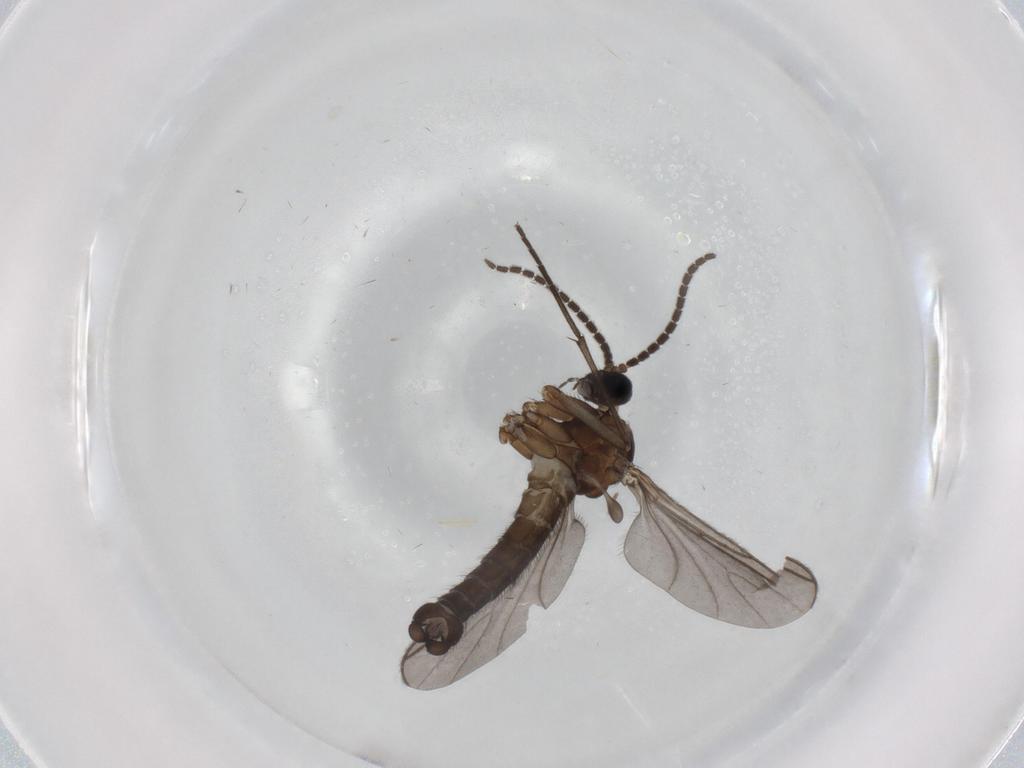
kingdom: Animalia
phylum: Arthropoda
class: Insecta
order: Diptera
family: Sciaridae
